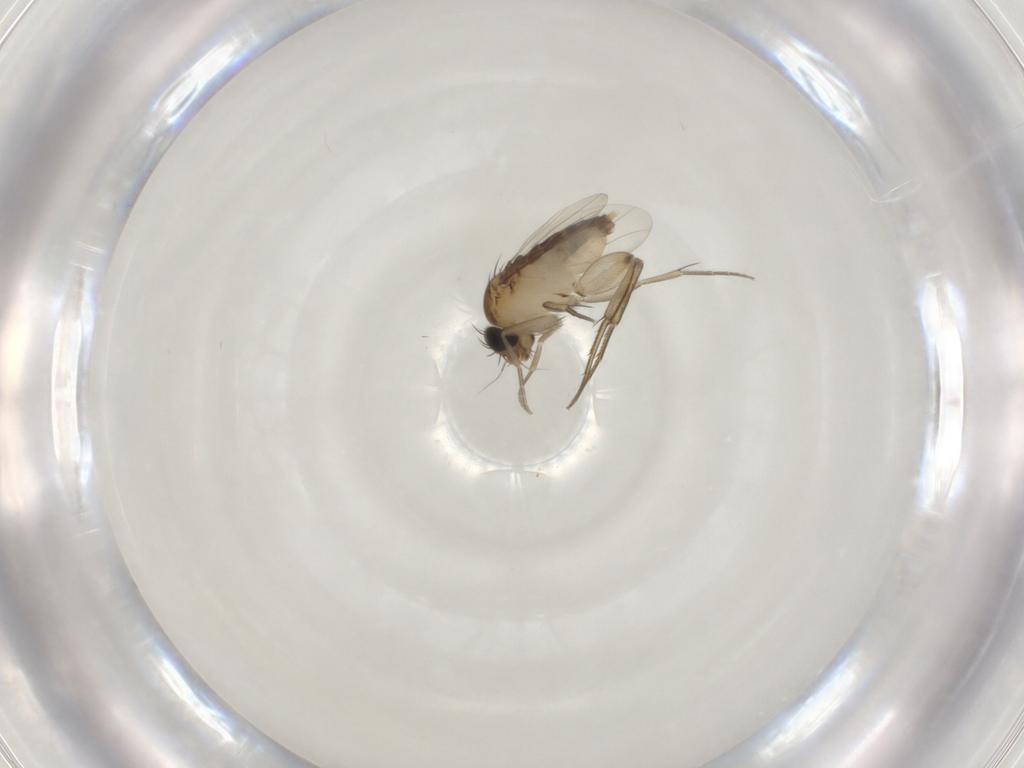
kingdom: Animalia
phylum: Arthropoda
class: Insecta
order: Diptera
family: Phoridae
